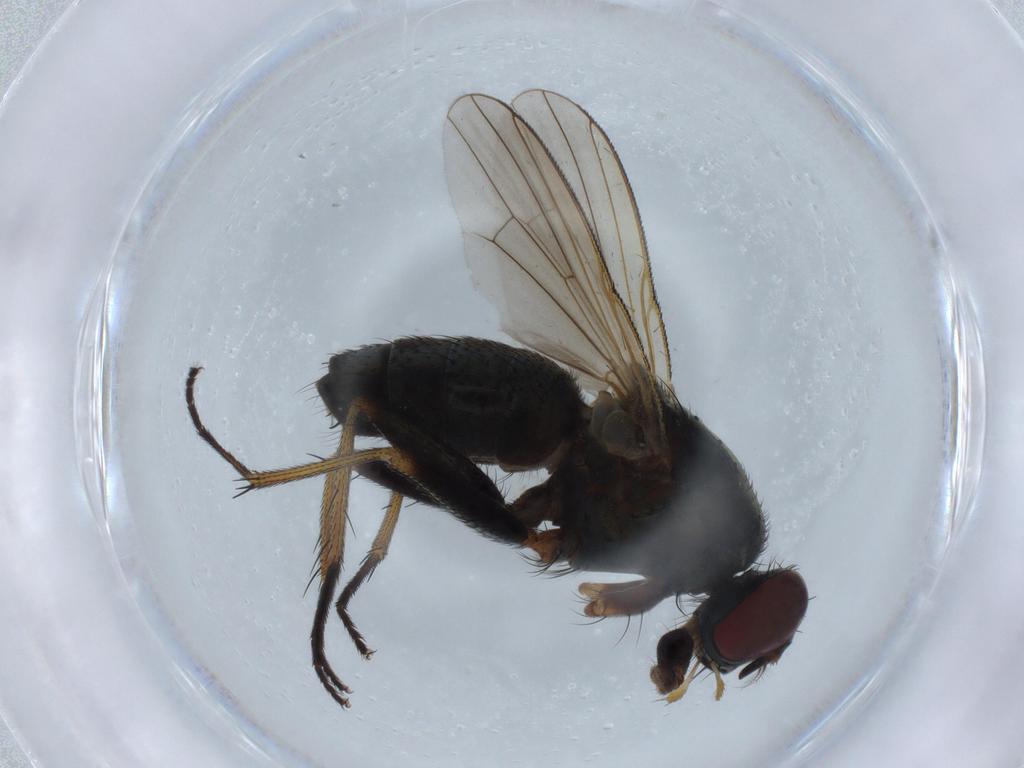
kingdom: Animalia
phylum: Arthropoda
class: Insecta
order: Diptera
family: Muscidae
